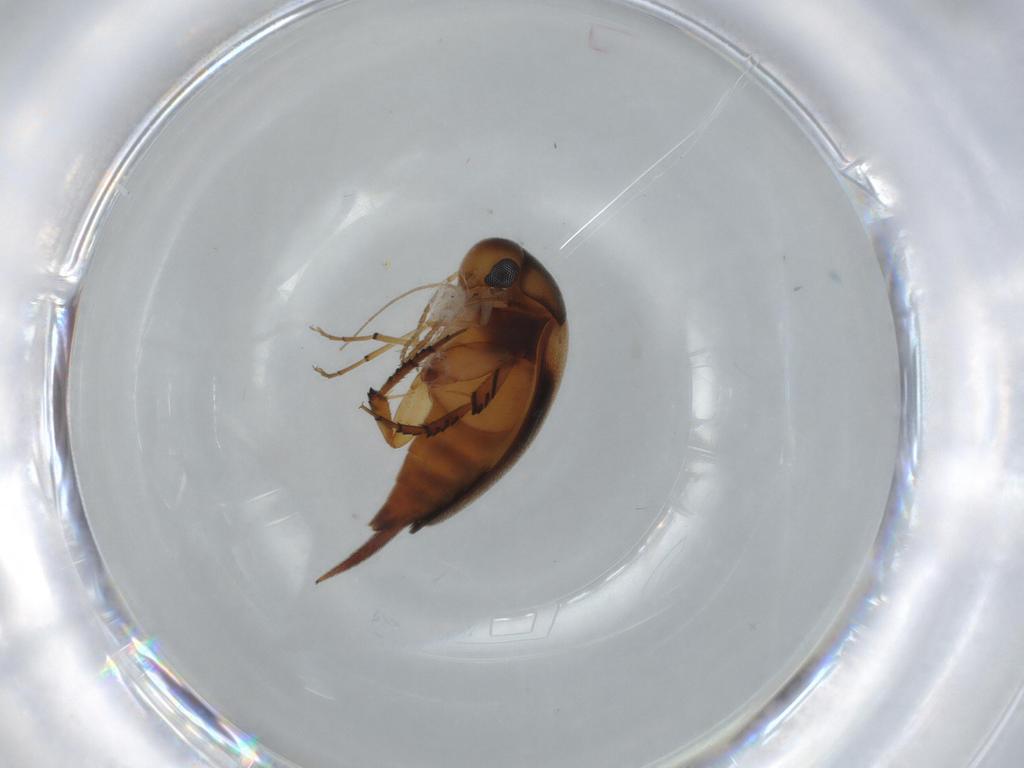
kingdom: Animalia
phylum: Arthropoda
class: Insecta
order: Coleoptera
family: Mordellidae
